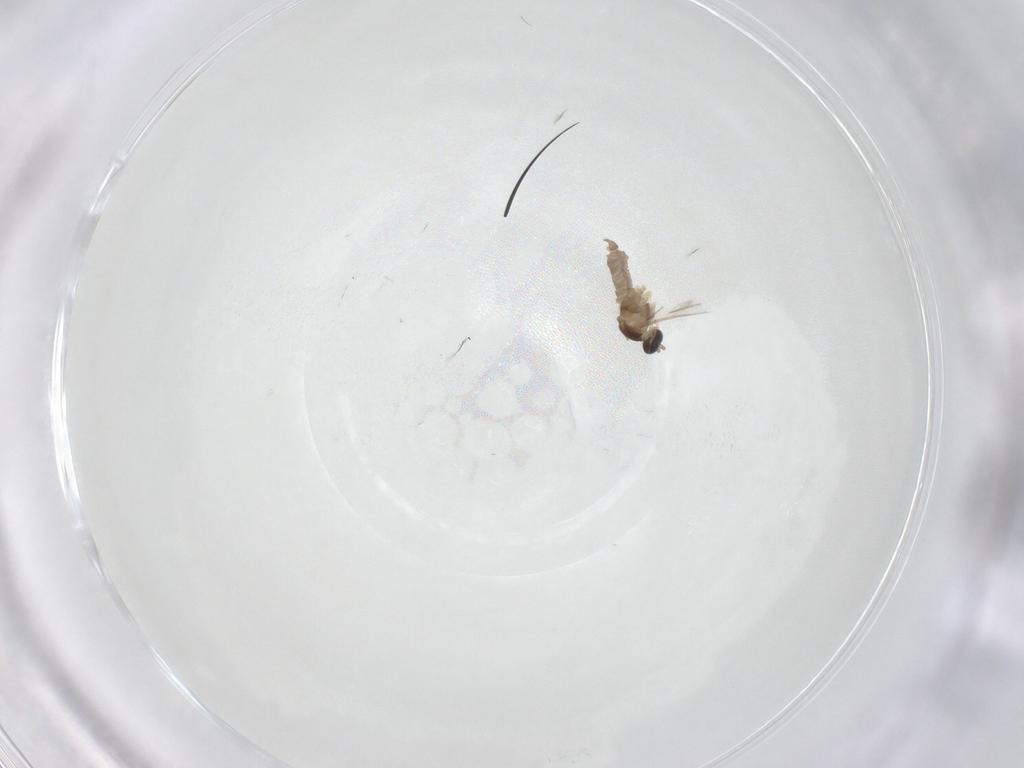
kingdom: Animalia
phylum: Arthropoda
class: Insecta
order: Diptera
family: Cecidomyiidae
